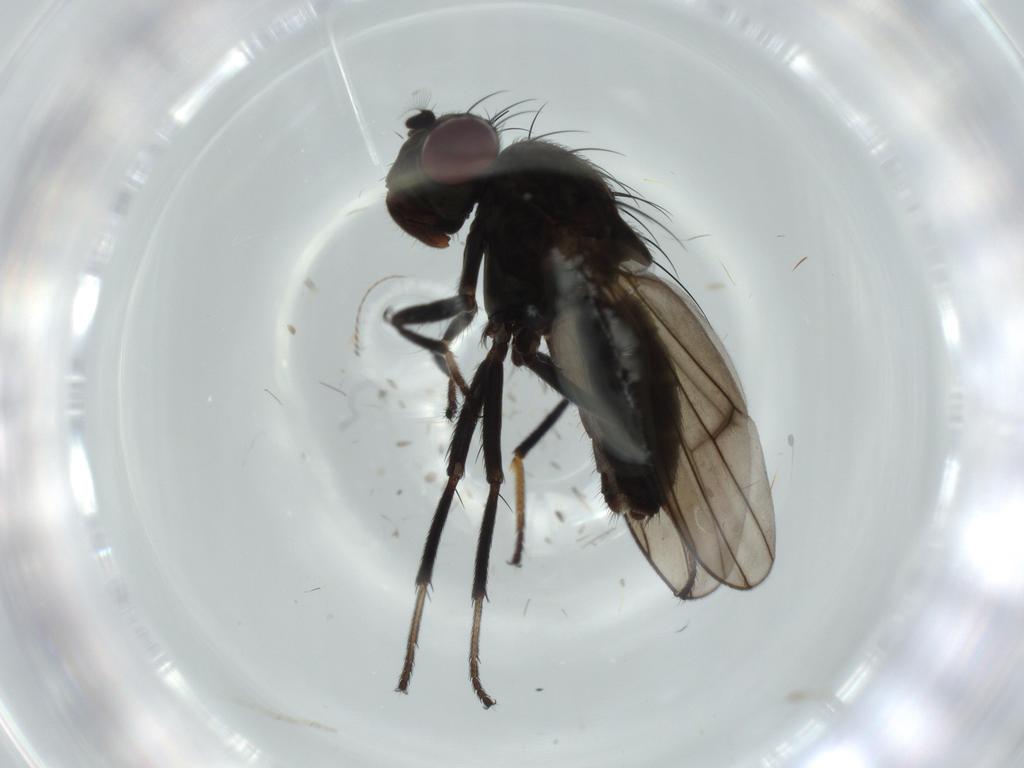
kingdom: Animalia
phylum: Arthropoda
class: Insecta
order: Diptera
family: Ephydridae
